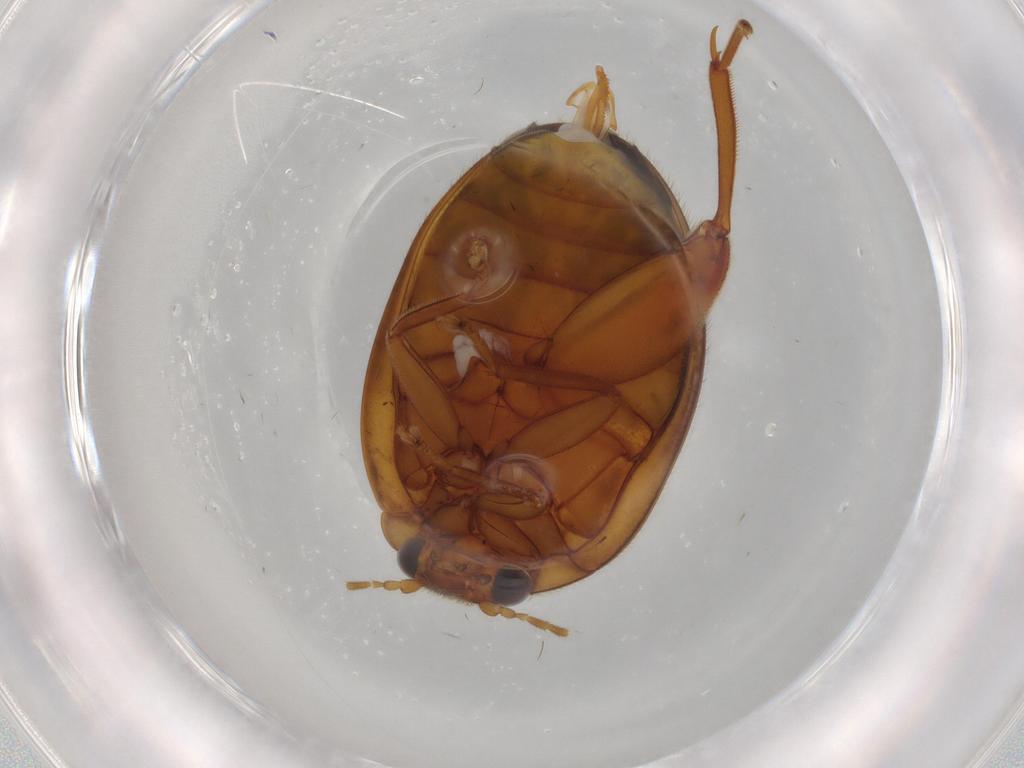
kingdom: Animalia
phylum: Arthropoda
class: Insecta
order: Coleoptera
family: Scirtidae
